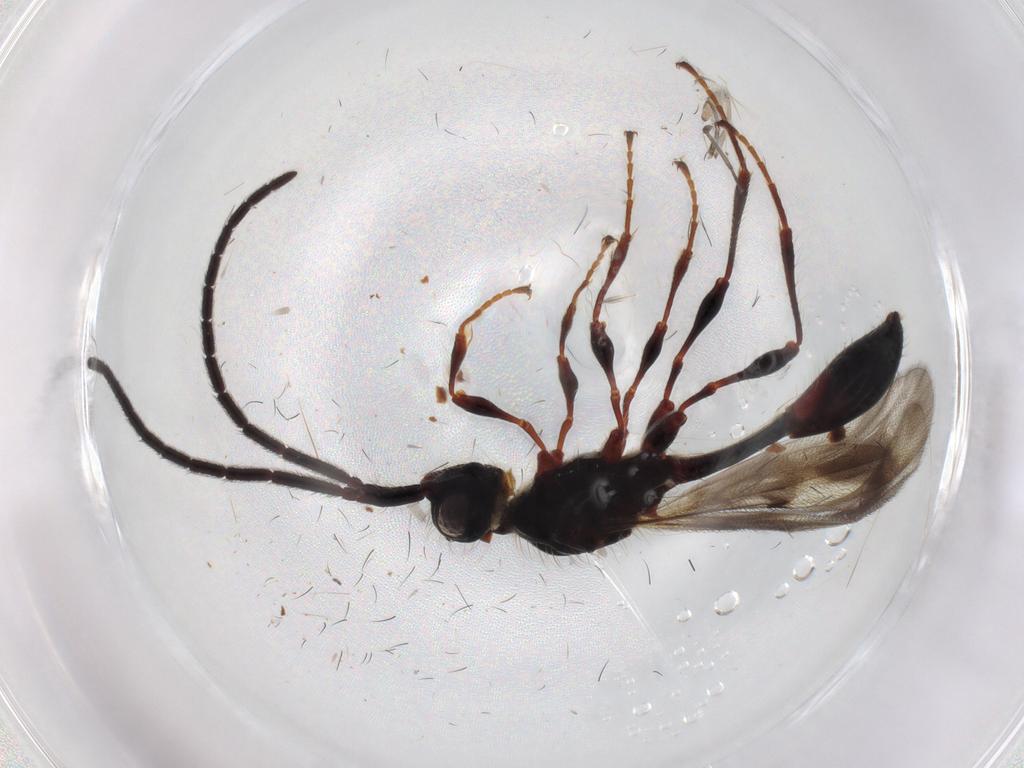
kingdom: Animalia
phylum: Arthropoda
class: Insecta
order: Hymenoptera
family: Diapriidae
